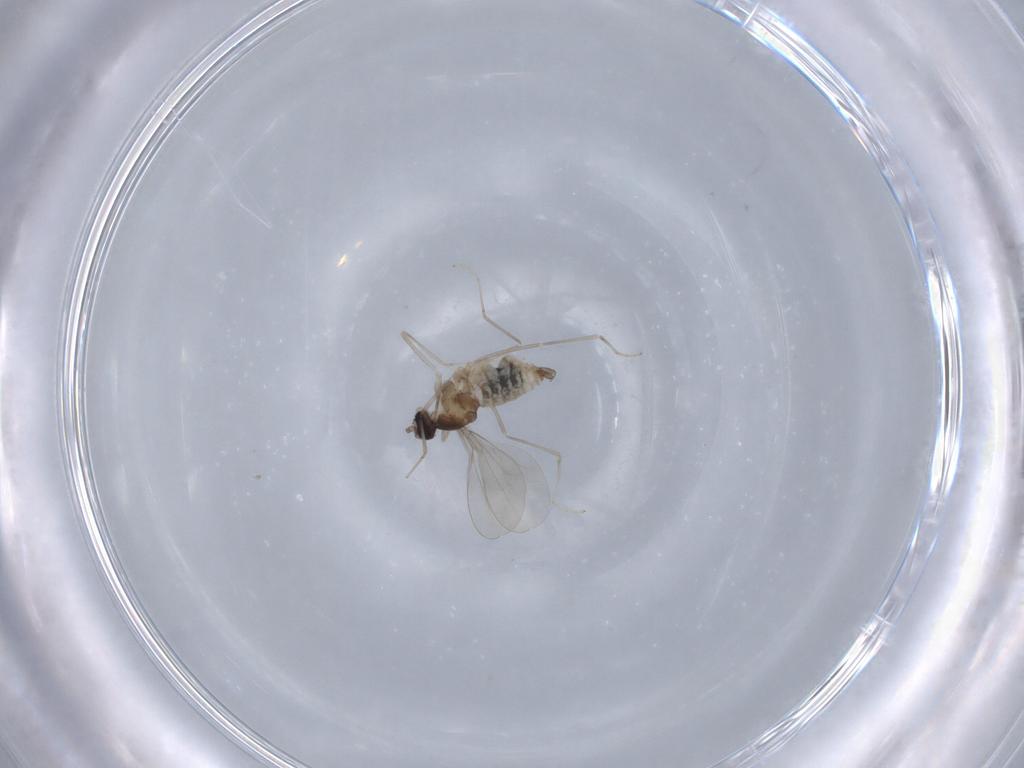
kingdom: Animalia
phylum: Arthropoda
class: Insecta
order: Diptera
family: Cecidomyiidae
